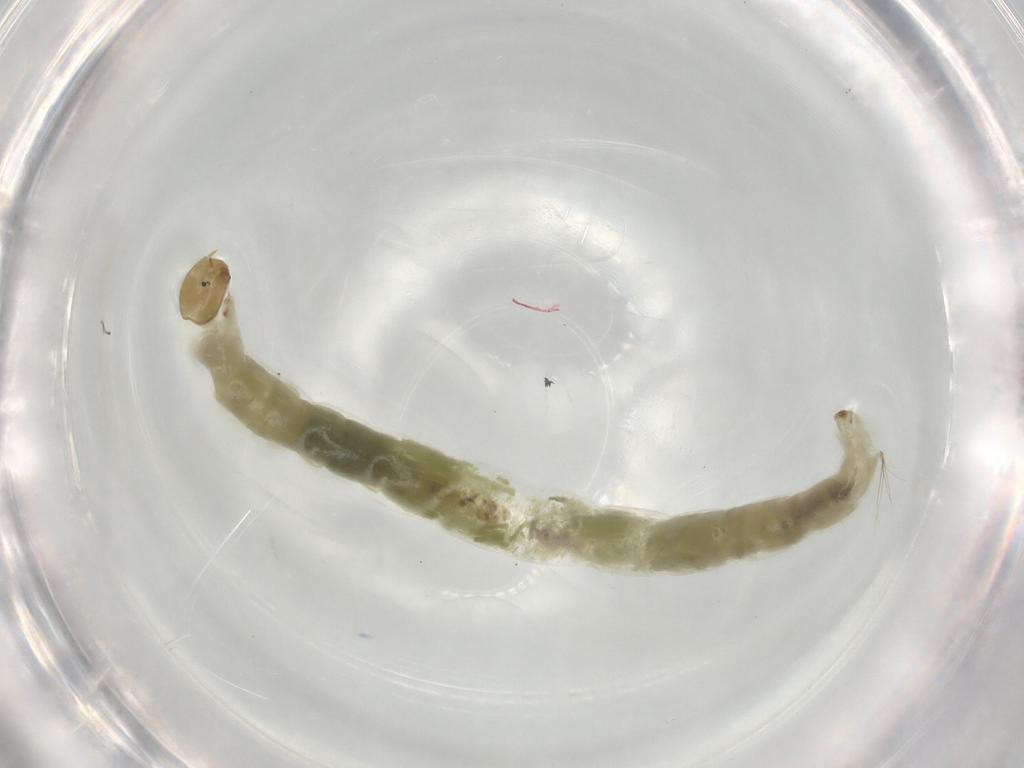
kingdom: Animalia
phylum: Arthropoda
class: Insecta
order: Diptera
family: Chironomidae
